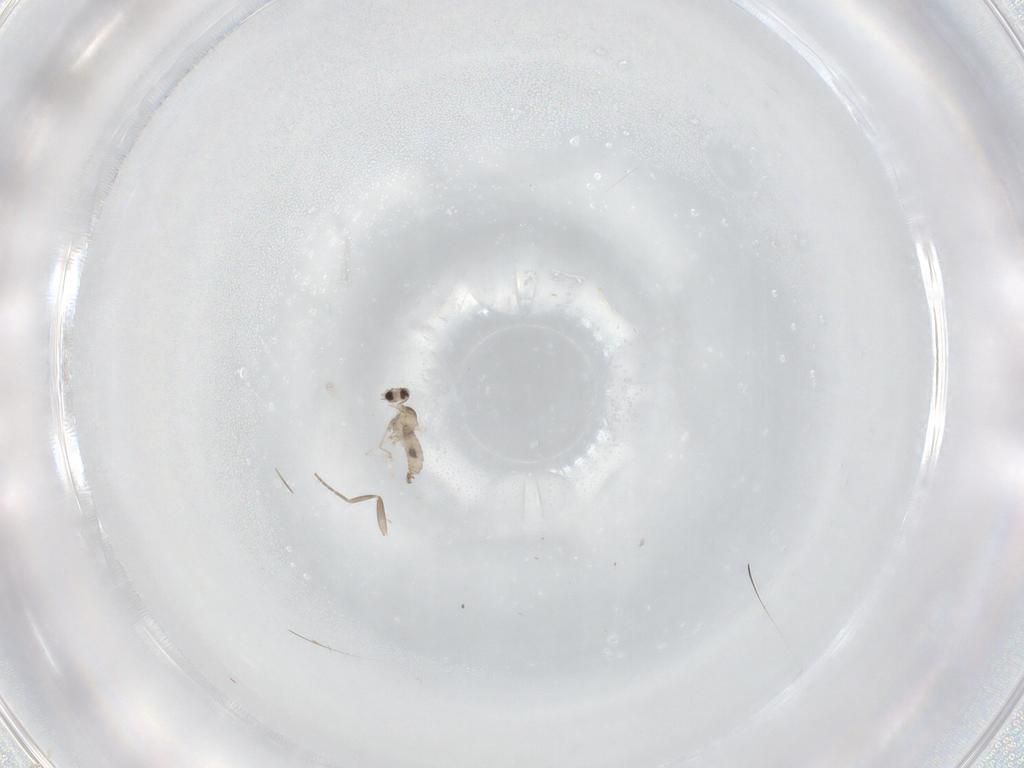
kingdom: Animalia
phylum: Arthropoda
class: Insecta
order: Diptera
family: Cecidomyiidae
